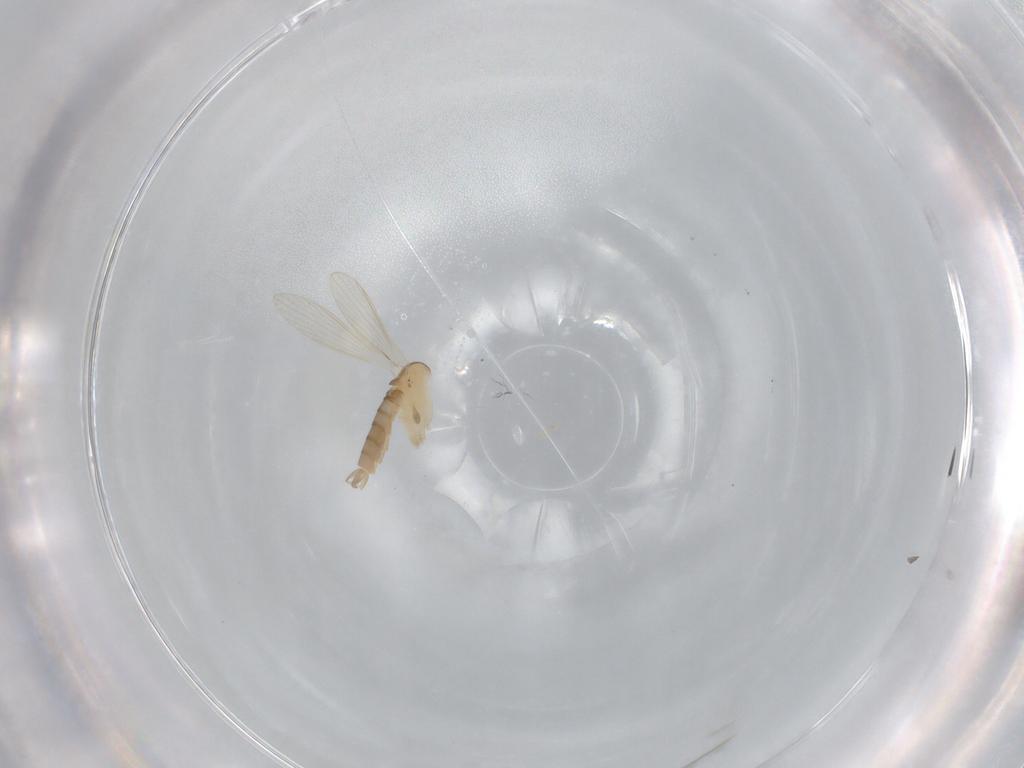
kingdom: Animalia
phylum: Arthropoda
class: Insecta
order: Diptera
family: Psychodidae
